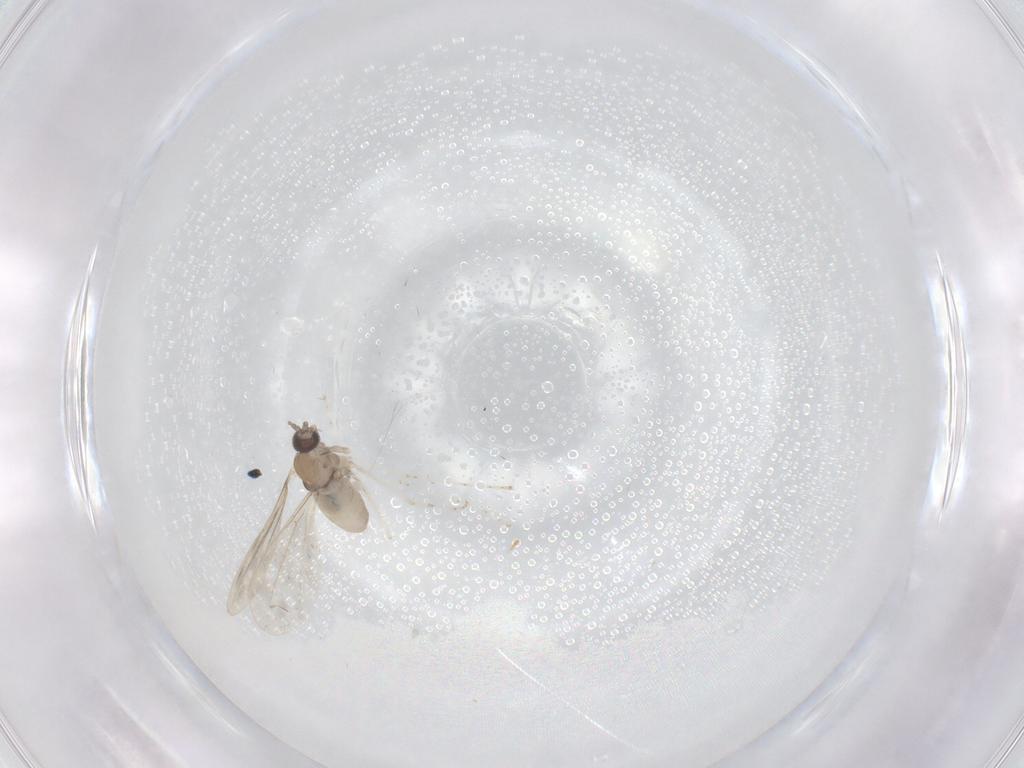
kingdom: Animalia
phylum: Arthropoda
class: Insecta
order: Diptera
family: Cecidomyiidae
